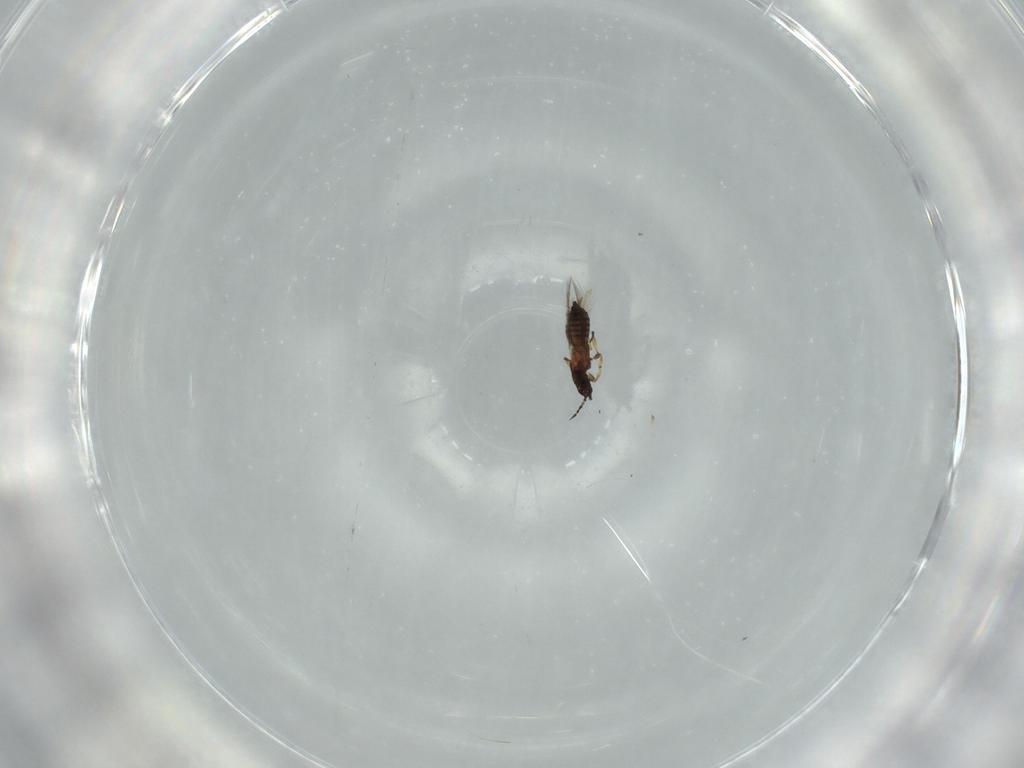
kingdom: Animalia
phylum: Arthropoda
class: Insecta
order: Thysanoptera
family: Thripidae
